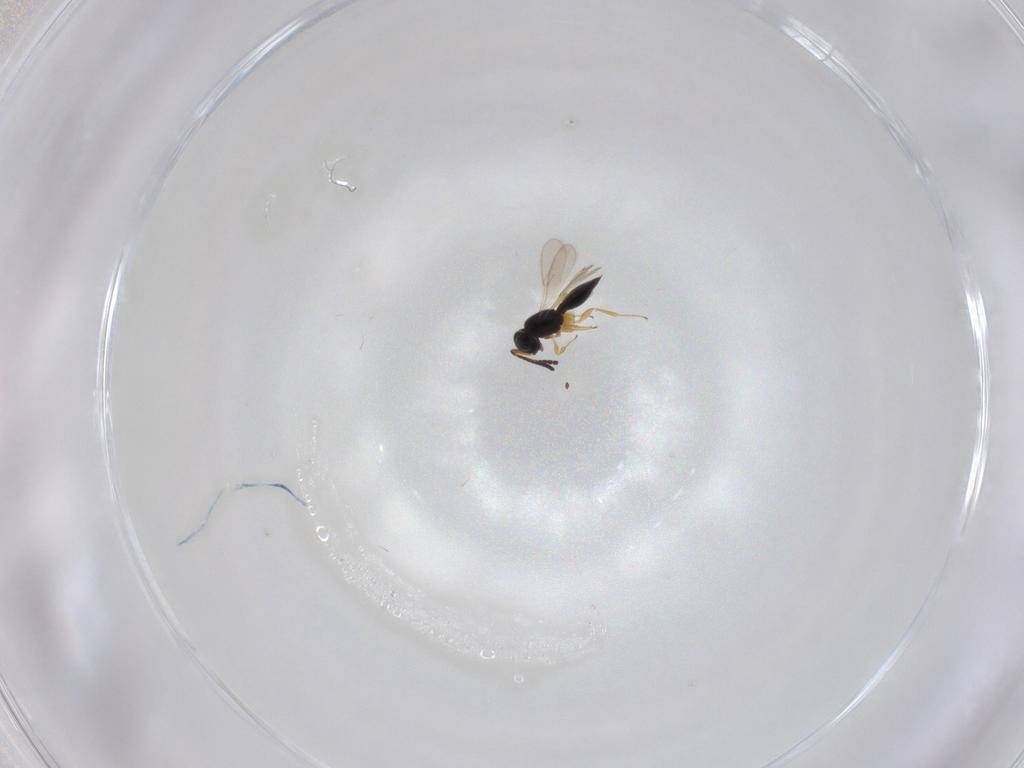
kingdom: Animalia
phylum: Arthropoda
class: Insecta
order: Hymenoptera
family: Scelionidae
